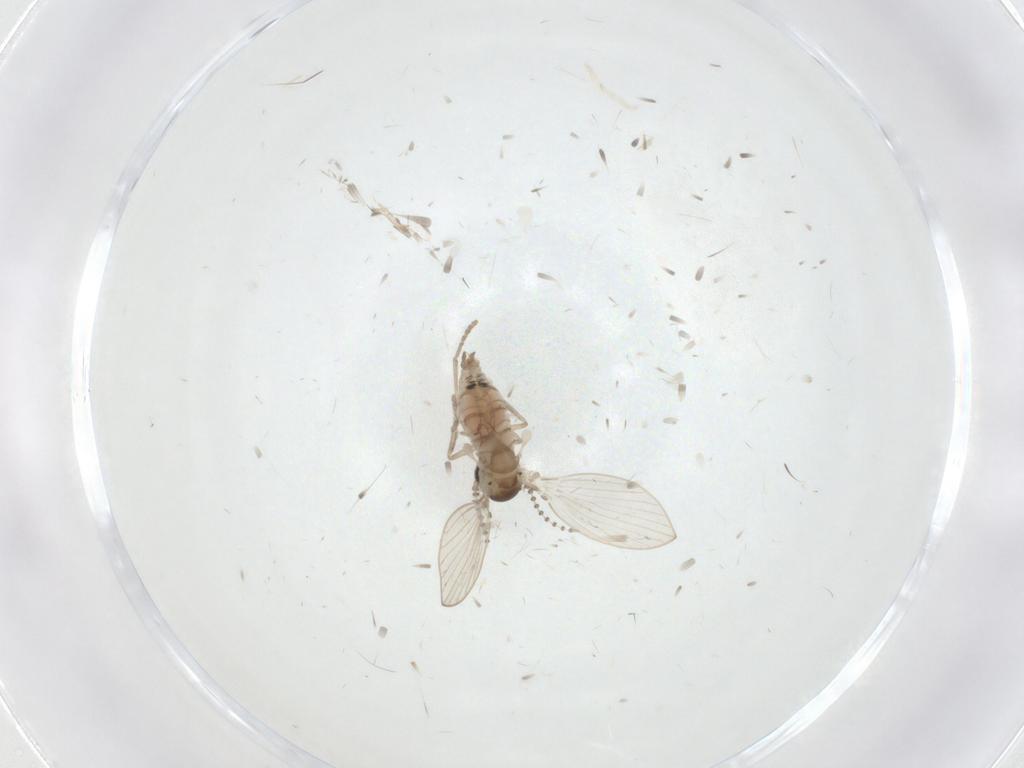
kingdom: Animalia
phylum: Arthropoda
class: Insecta
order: Diptera
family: Psychodidae
